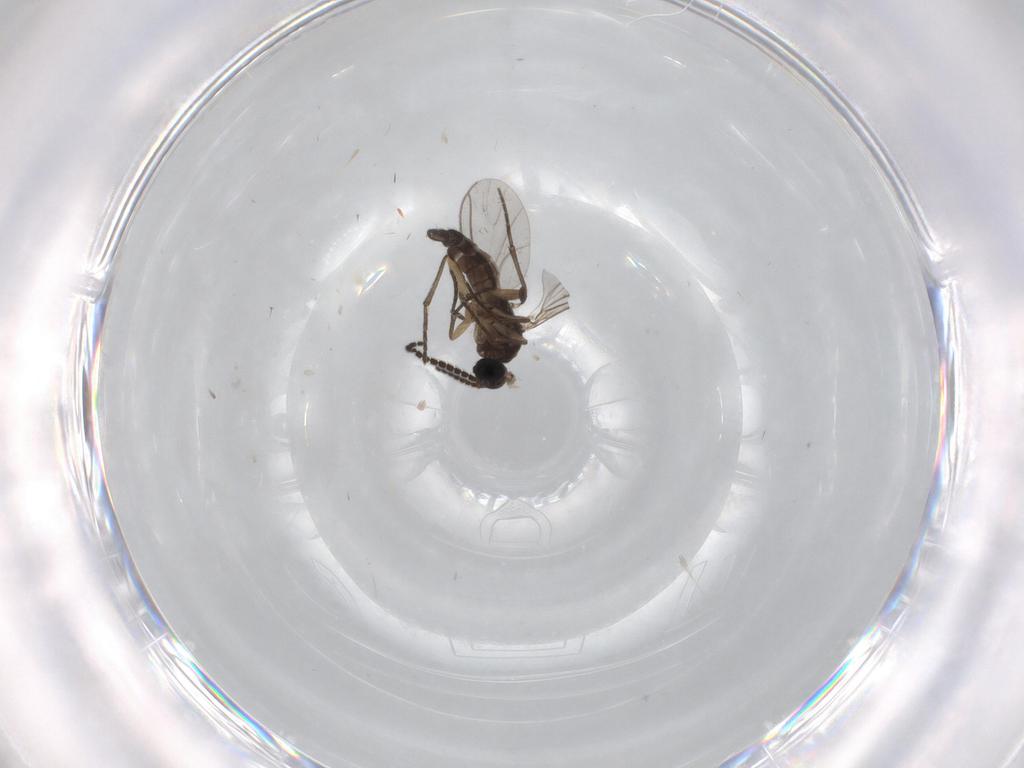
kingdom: Animalia
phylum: Arthropoda
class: Insecta
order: Diptera
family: Sciaridae
